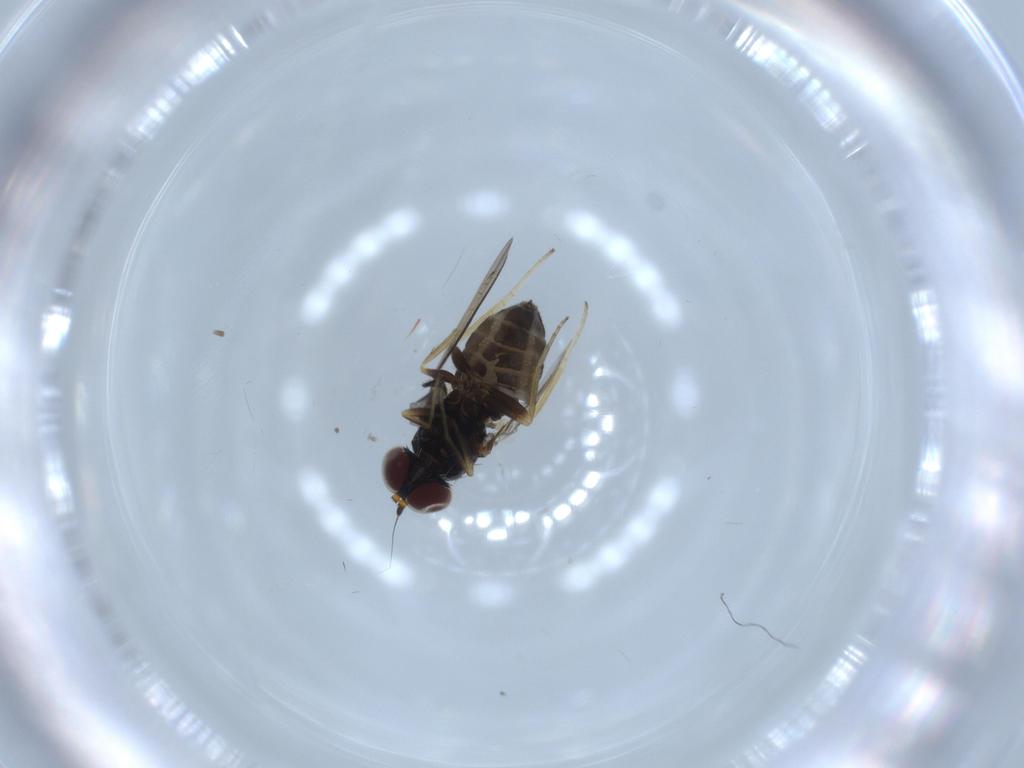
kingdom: Animalia
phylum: Arthropoda
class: Insecta
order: Diptera
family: Dolichopodidae
